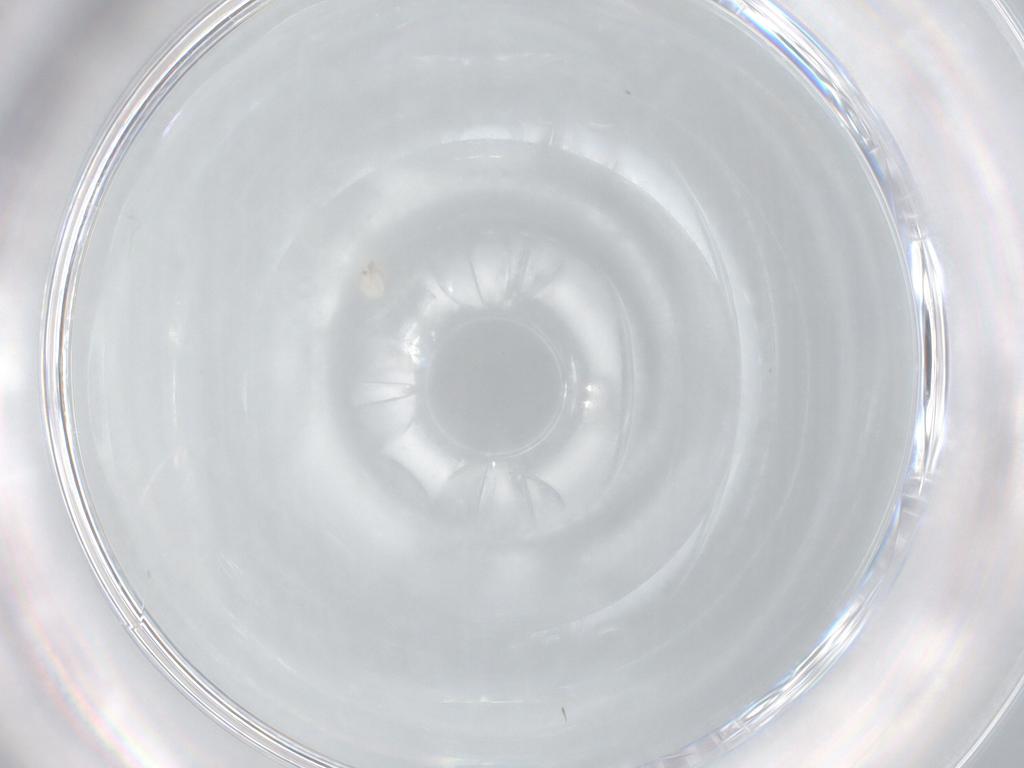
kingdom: Animalia
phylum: Arthropoda
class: Arachnida
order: Trombidiformes
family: Arrenuridae
